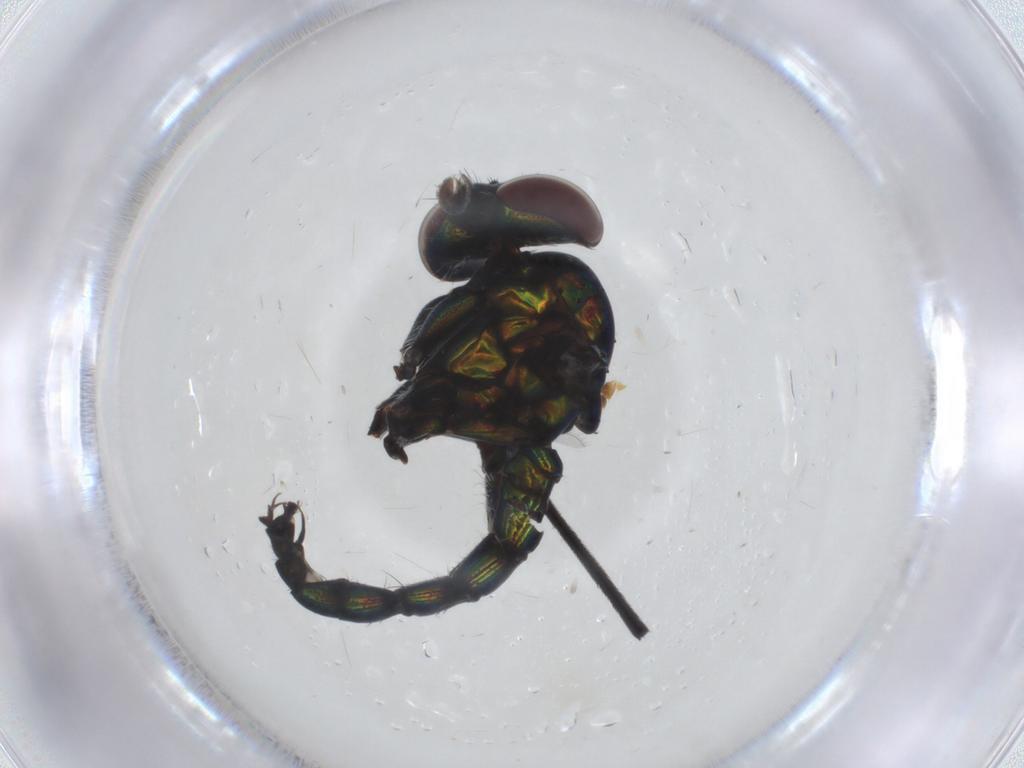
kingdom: Animalia
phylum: Arthropoda
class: Insecta
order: Diptera
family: Dolichopodidae
